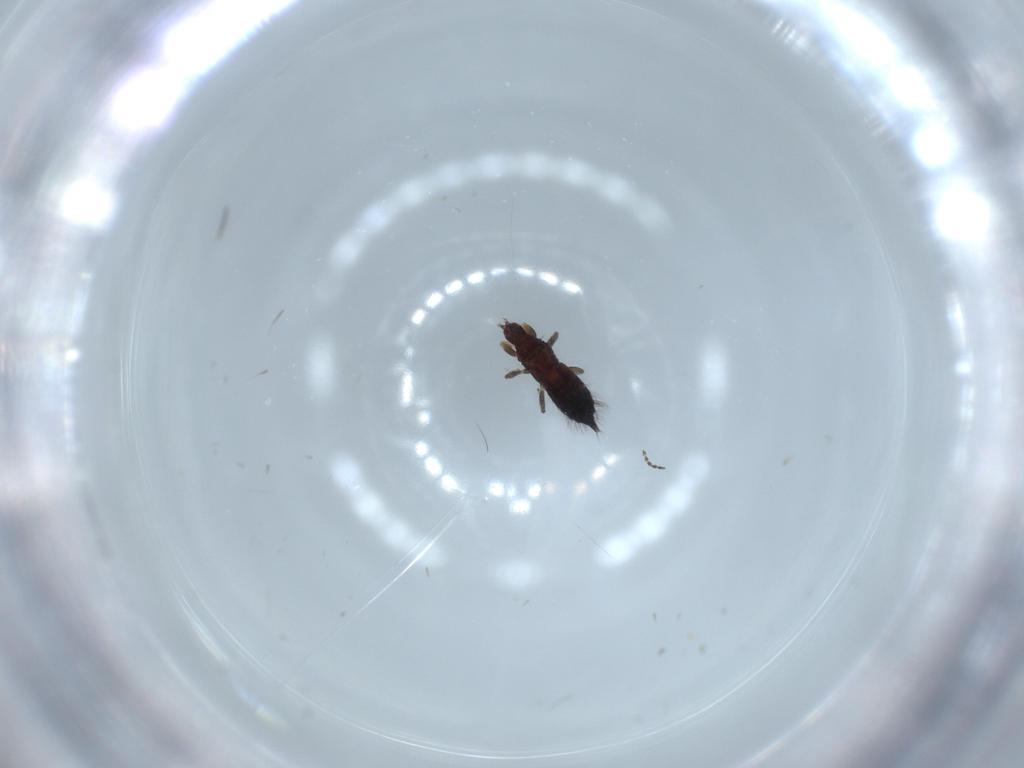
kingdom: Animalia
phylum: Arthropoda
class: Insecta
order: Thysanoptera
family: Phlaeothripidae
